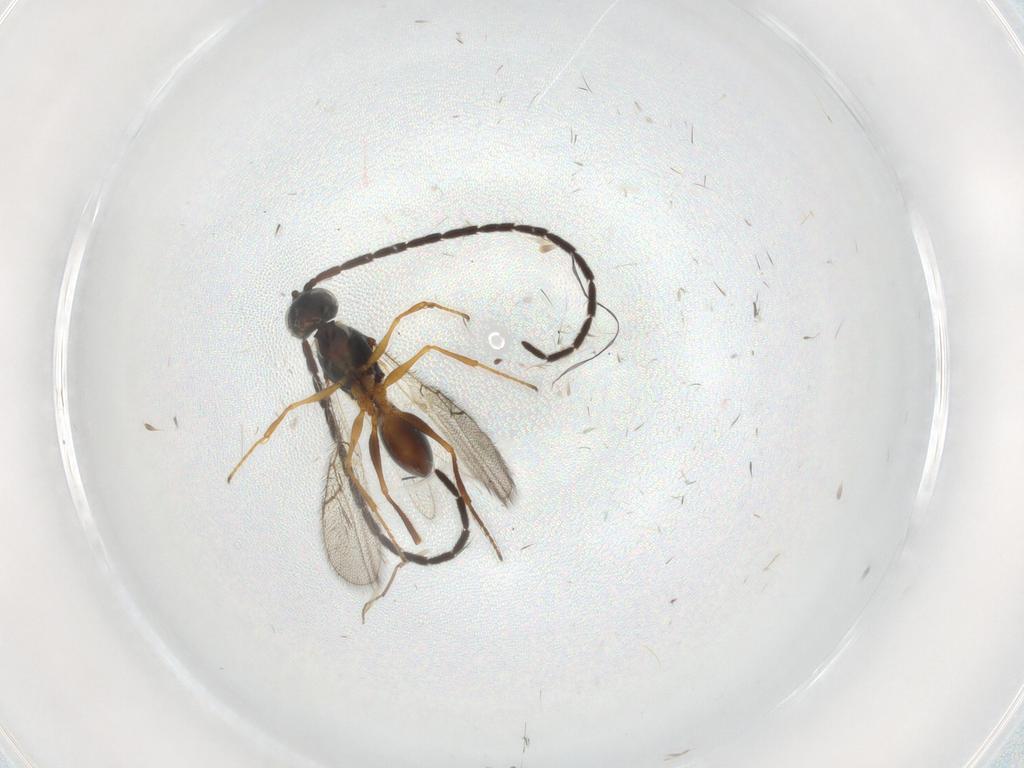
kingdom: Animalia
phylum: Arthropoda
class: Insecta
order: Hymenoptera
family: Figitidae
